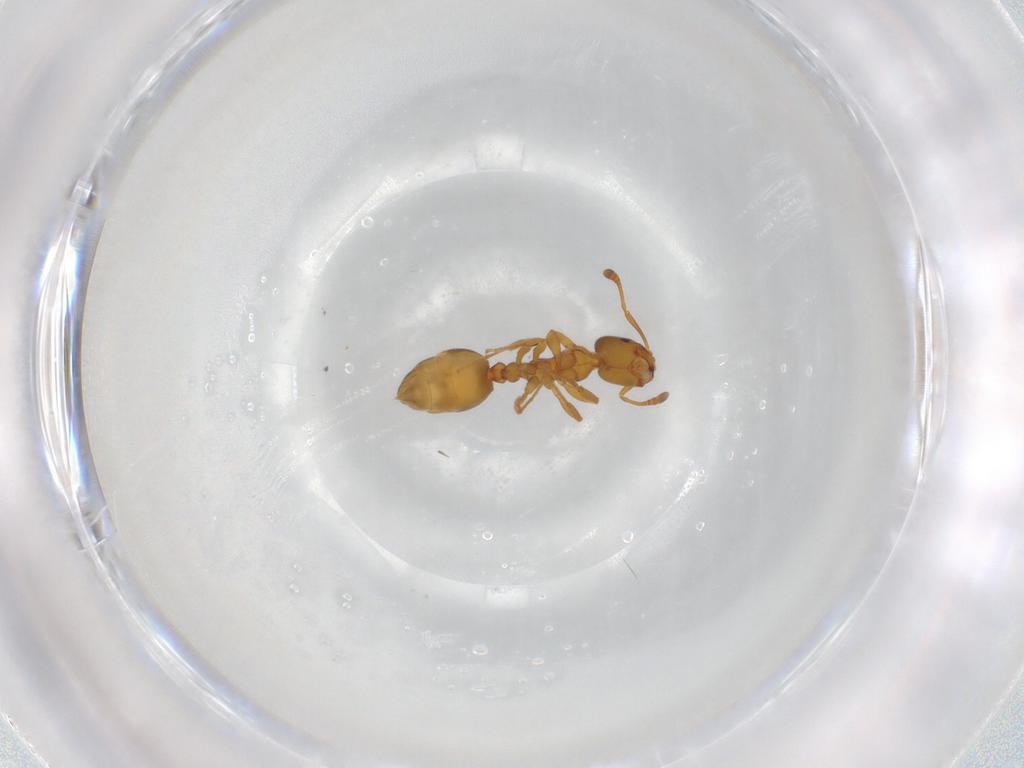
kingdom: Animalia
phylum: Arthropoda
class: Insecta
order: Hymenoptera
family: Formicidae
